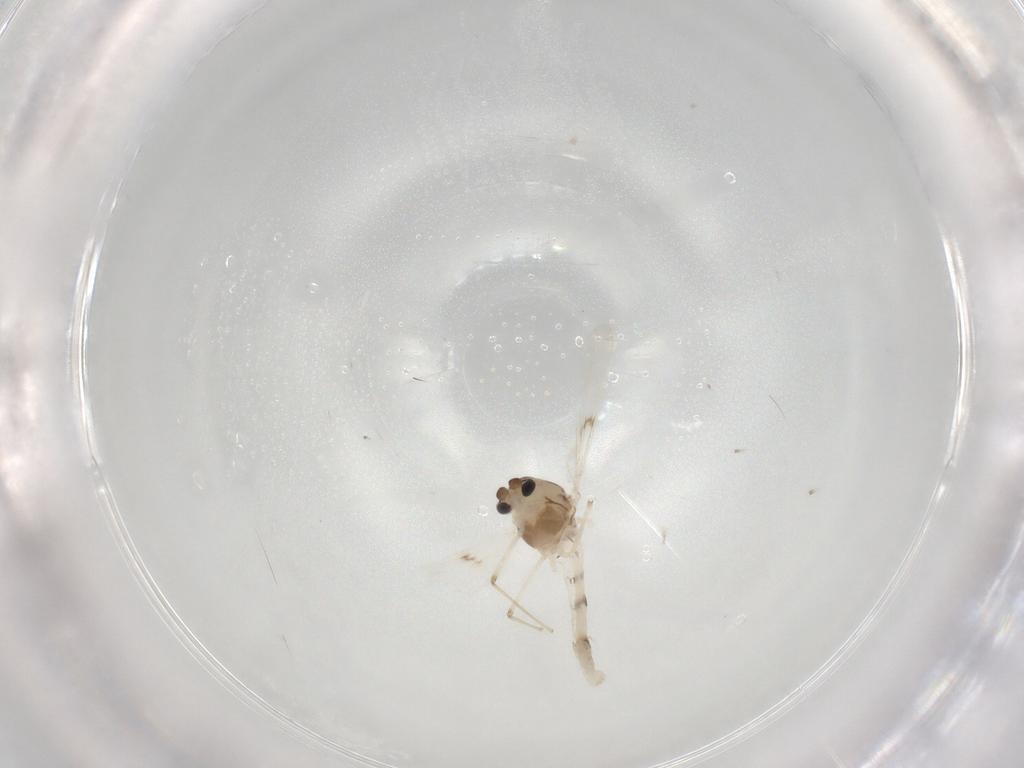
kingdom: Animalia
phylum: Arthropoda
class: Insecta
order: Diptera
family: Chironomidae
